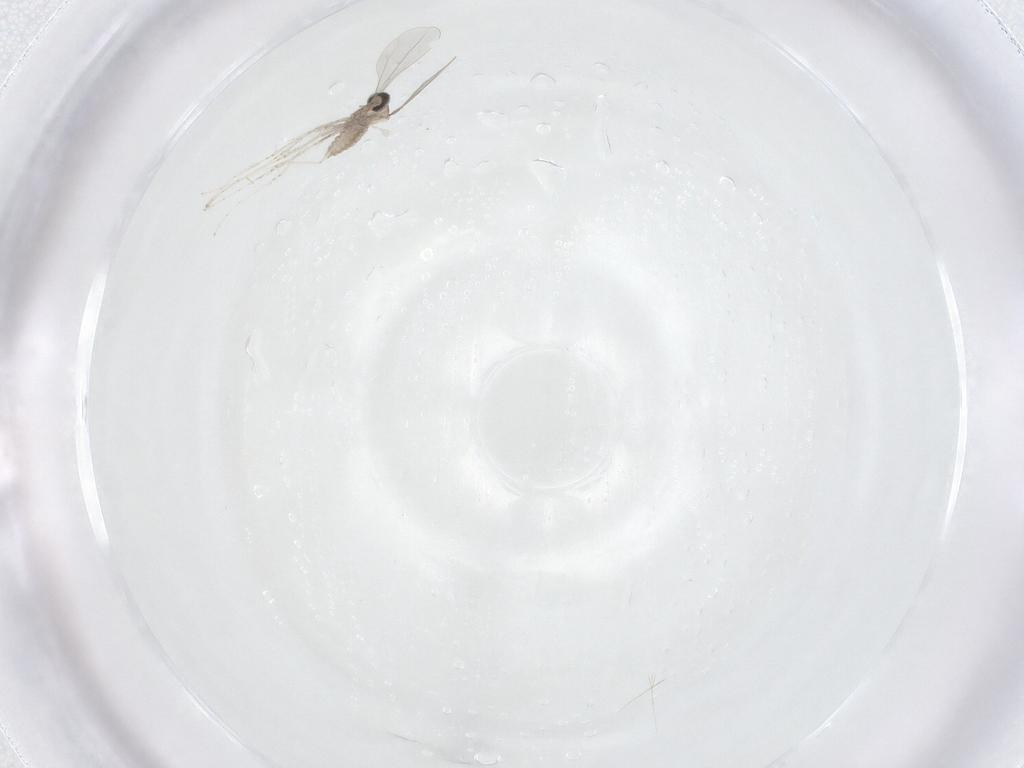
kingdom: Animalia
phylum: Arthropoda
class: Insecta
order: Diptera
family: Cecidomyiidae
